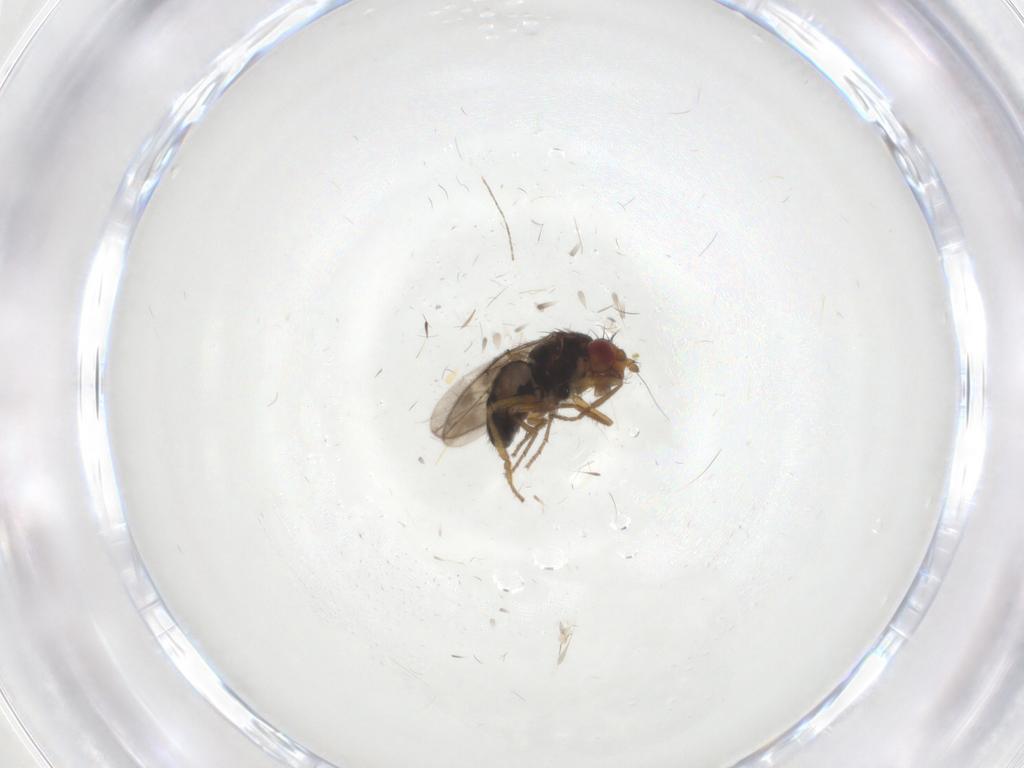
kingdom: Animalia
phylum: Arthropoda
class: Insecta
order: Diptera
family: Sphaeroceridae
